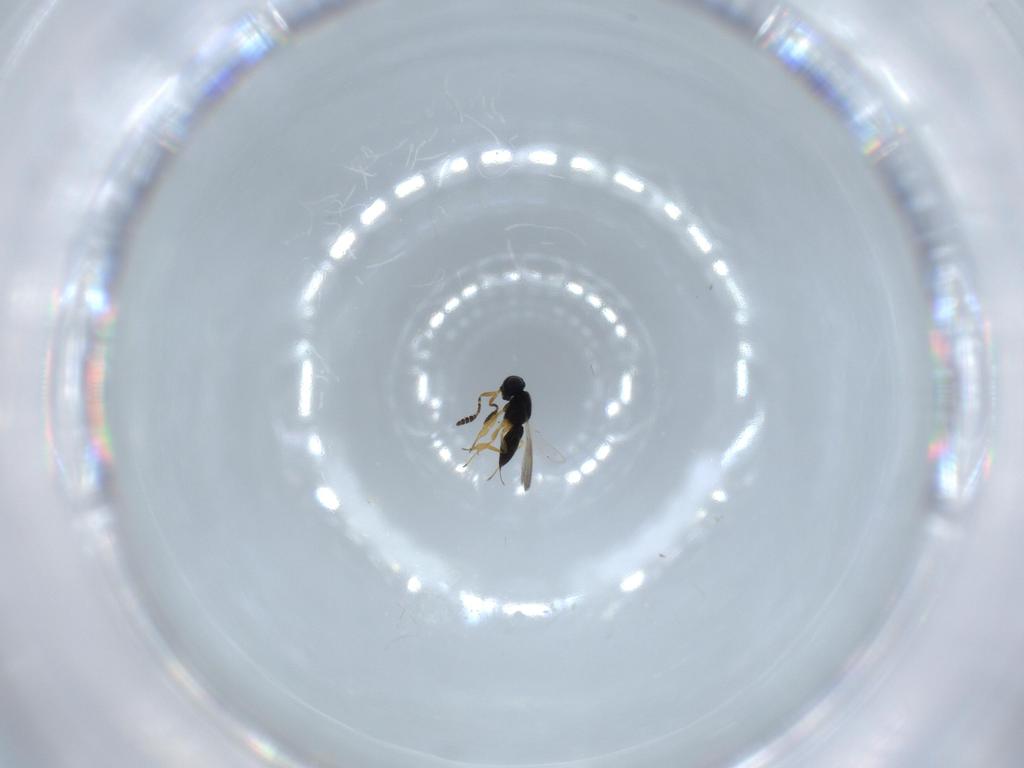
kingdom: Animalia
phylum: Arthropoda
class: Insecta
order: Hymenoptera
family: Scelionidae
